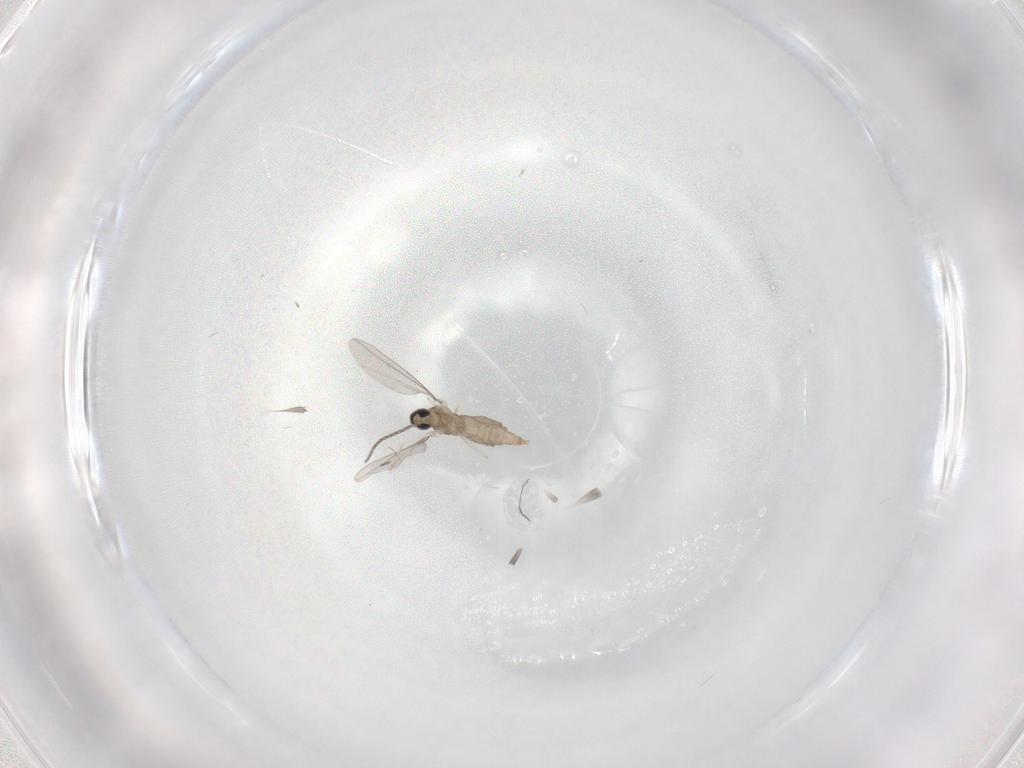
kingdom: Animalia
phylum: Arthropoda
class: Insecta
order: Diptera
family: Cecidomyiidae
